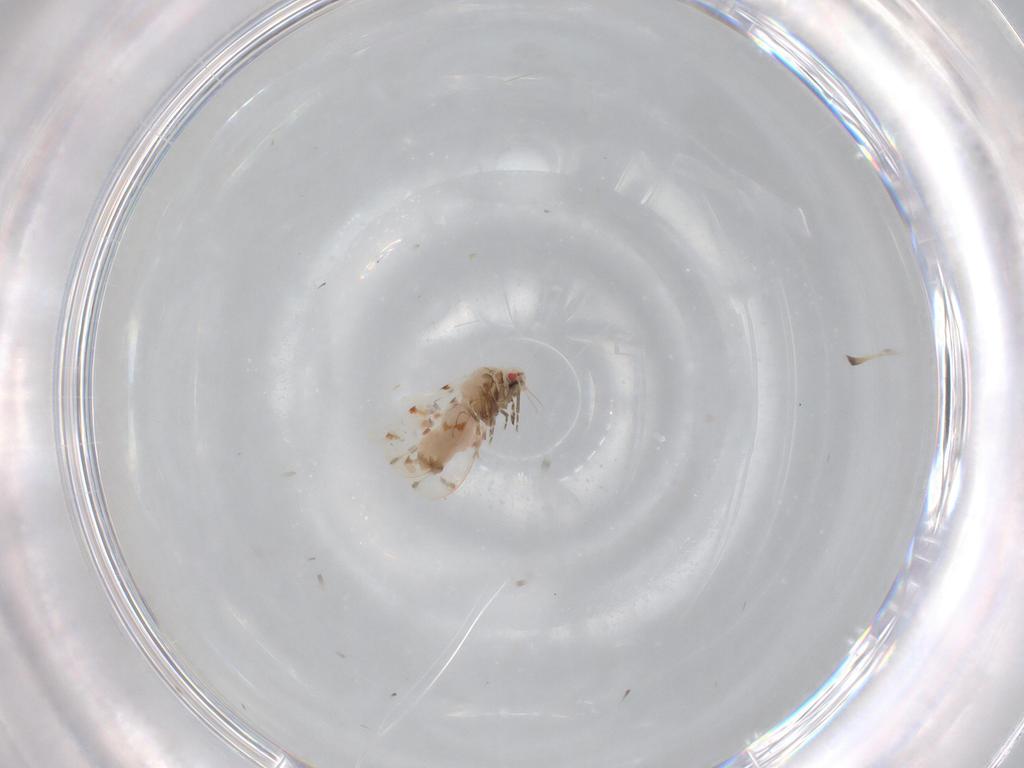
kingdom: Animalia
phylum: Arthropoda
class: Insecta
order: Hemiptera
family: Aleyrodidae
